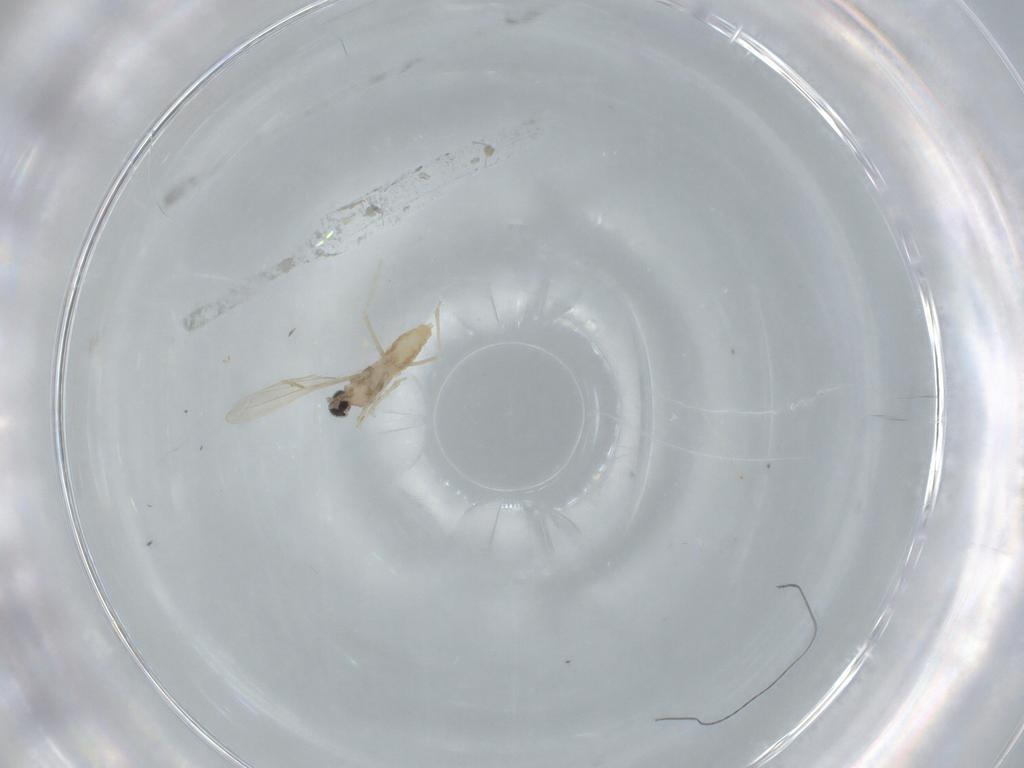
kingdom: Animalia
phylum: Arthropoda
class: Insecta
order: Diptera
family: Cecidomyiidae
